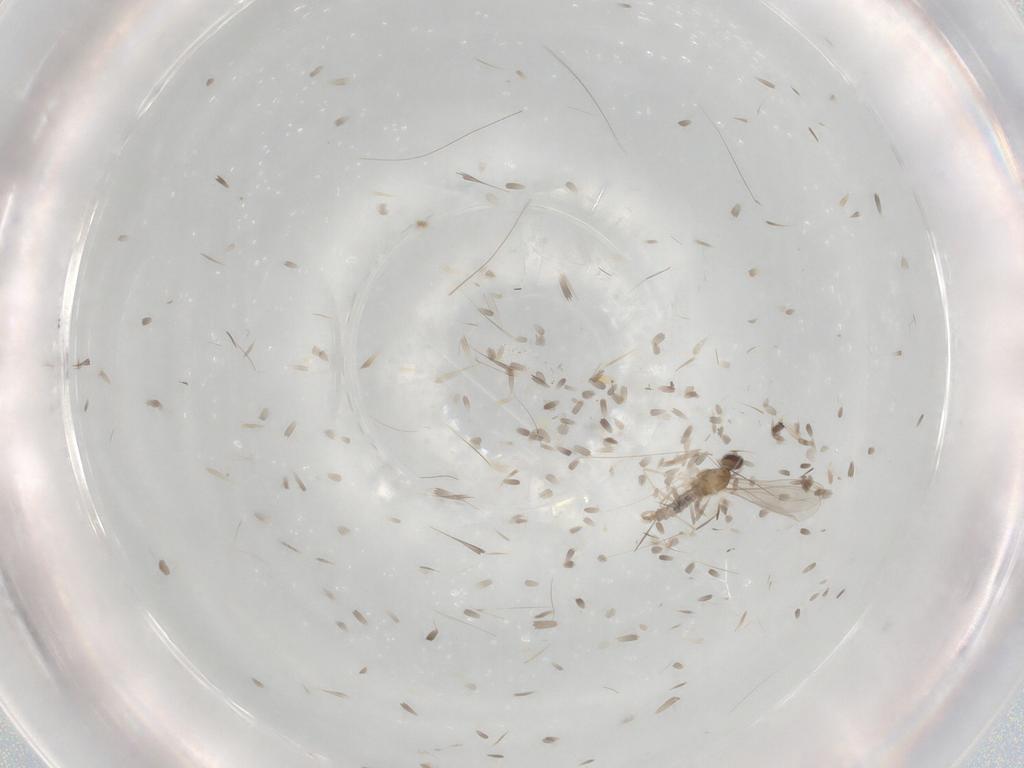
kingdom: Animalia
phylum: Arthropoda
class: Insecta
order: Diptera
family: Cecidomyiidae
